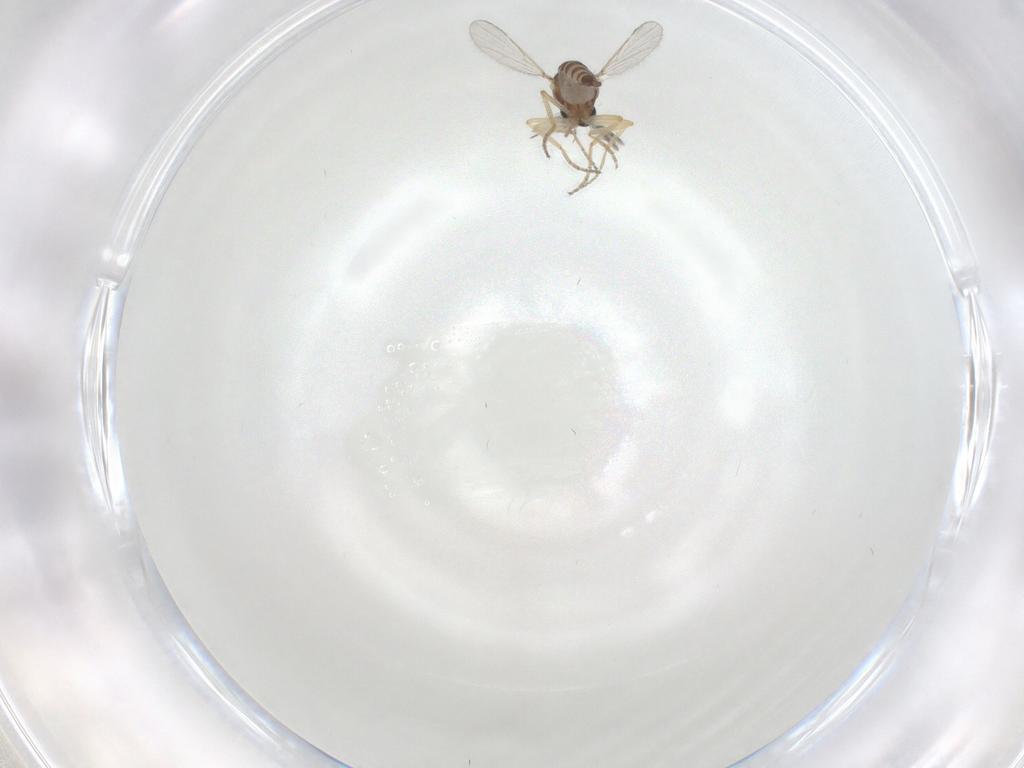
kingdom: Animalia
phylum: Arthropoda
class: Insecta
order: Diptera
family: Ceratopogonidae
